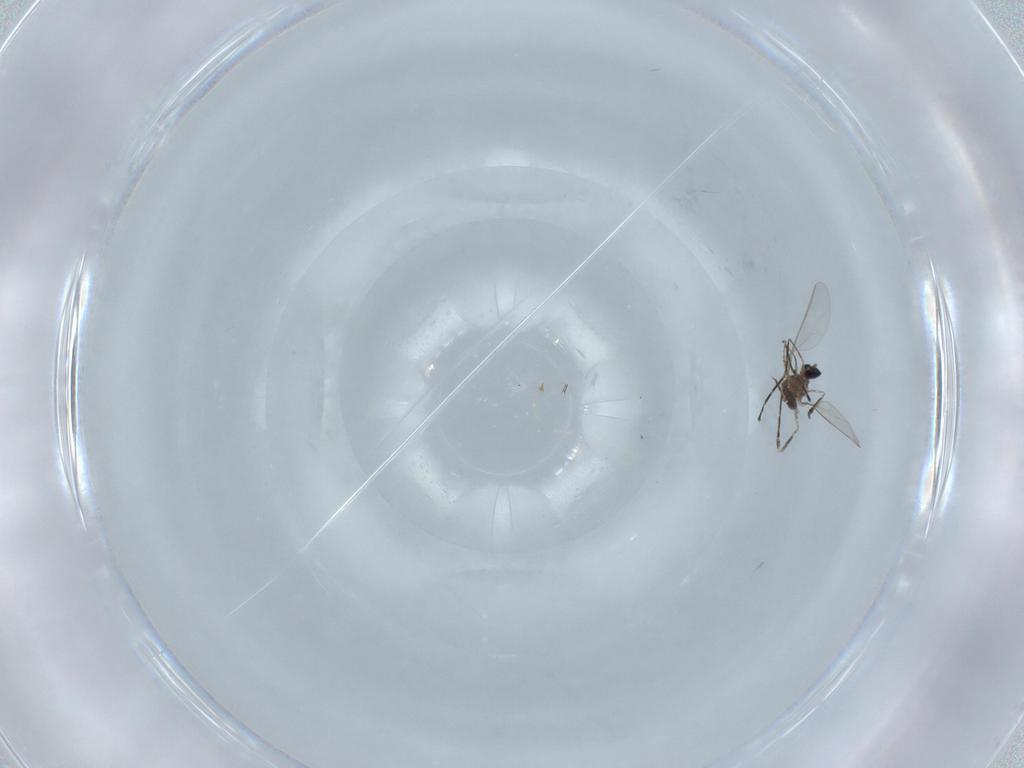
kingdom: Animalia
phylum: Arthropoda
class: Insecta
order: Diptera
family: Cecidomyiidae
